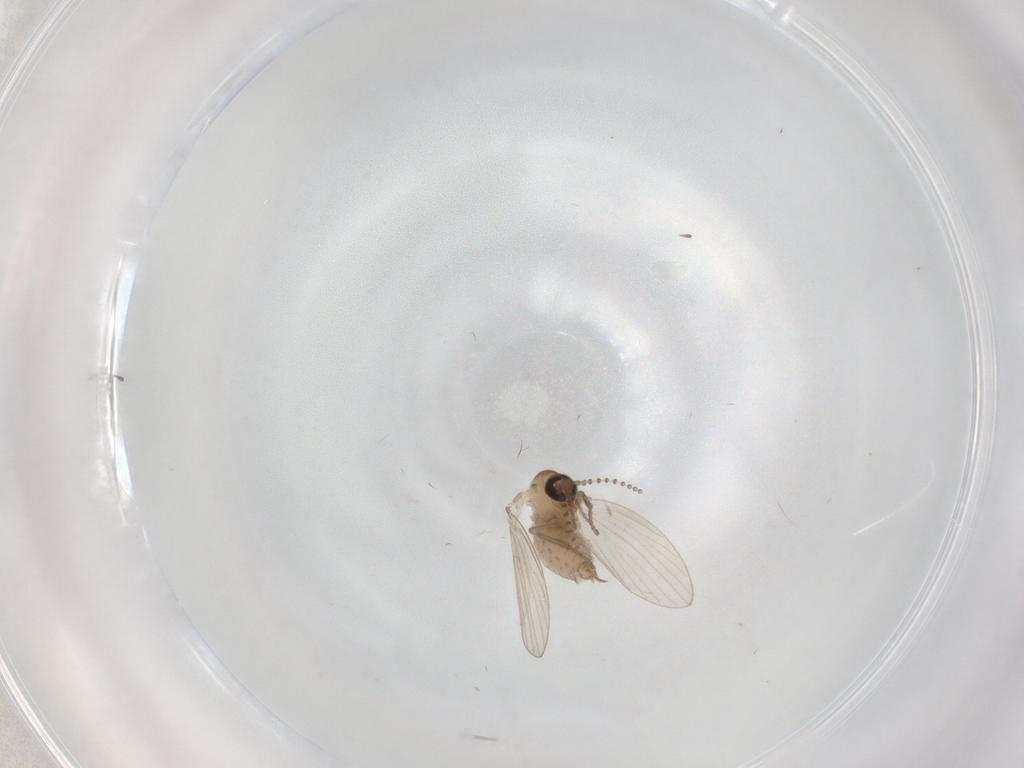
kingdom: Animalia
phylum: Arthropoda
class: Insecta
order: Diptera
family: Psychodidae
